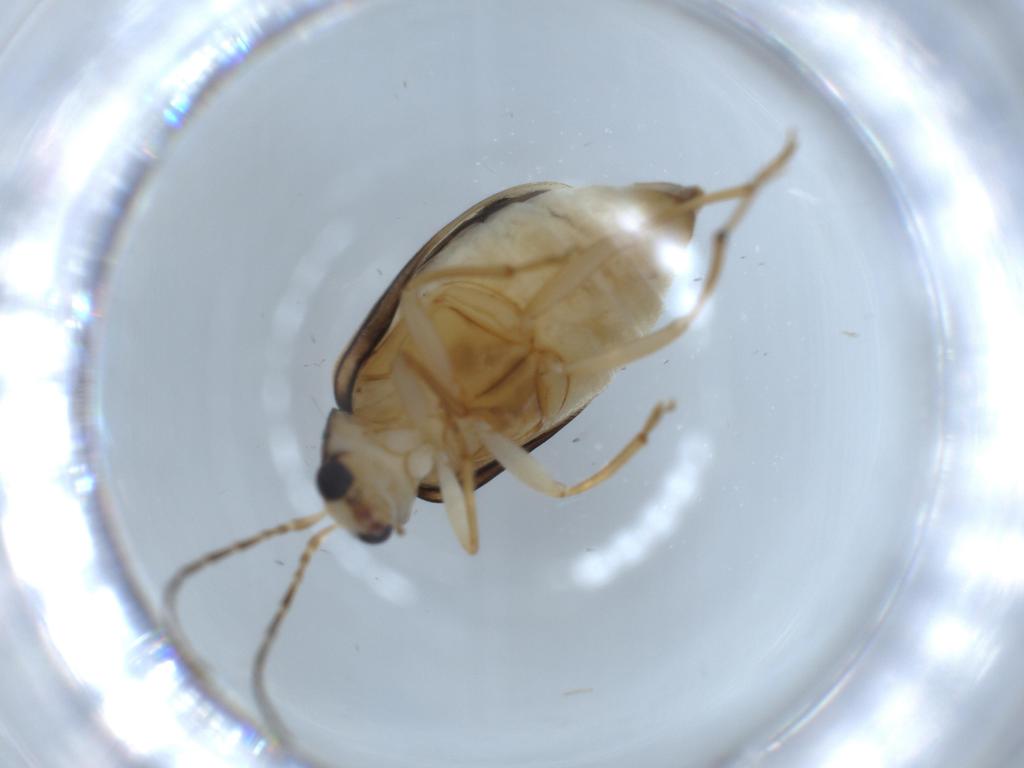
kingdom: Animalia
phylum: Arthropoda
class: Insecta
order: Coleoptera
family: Brentidae
